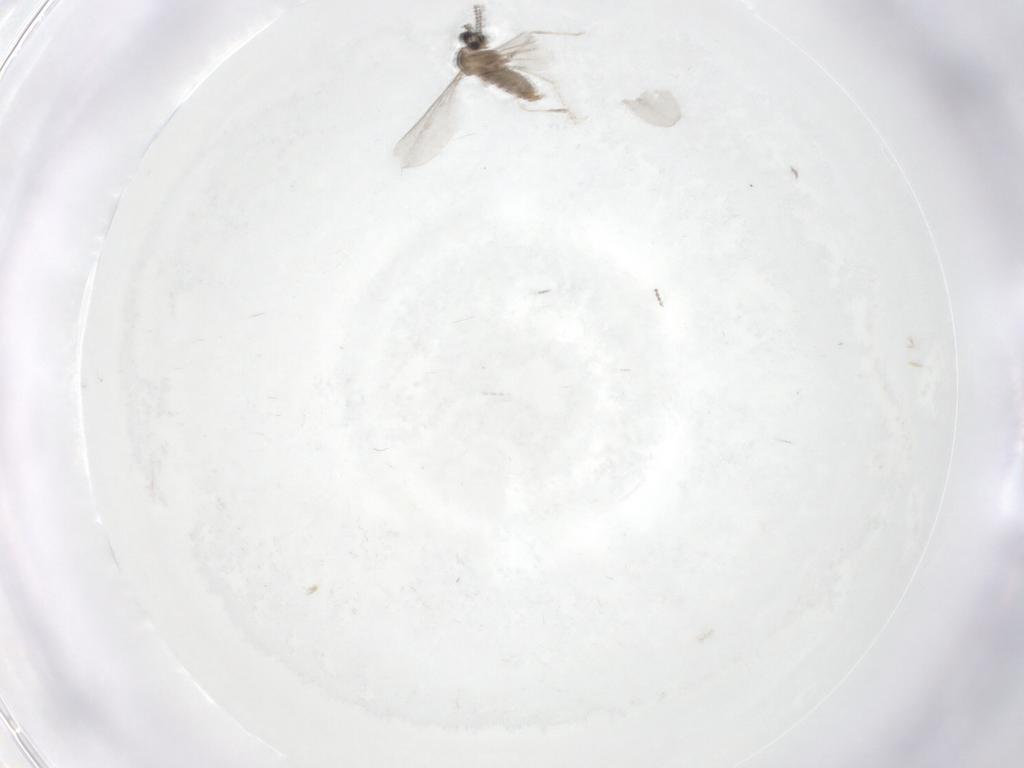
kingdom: Animalia
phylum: Arthropoda
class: Insecta
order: Diptera
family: Cecidomyiidae
